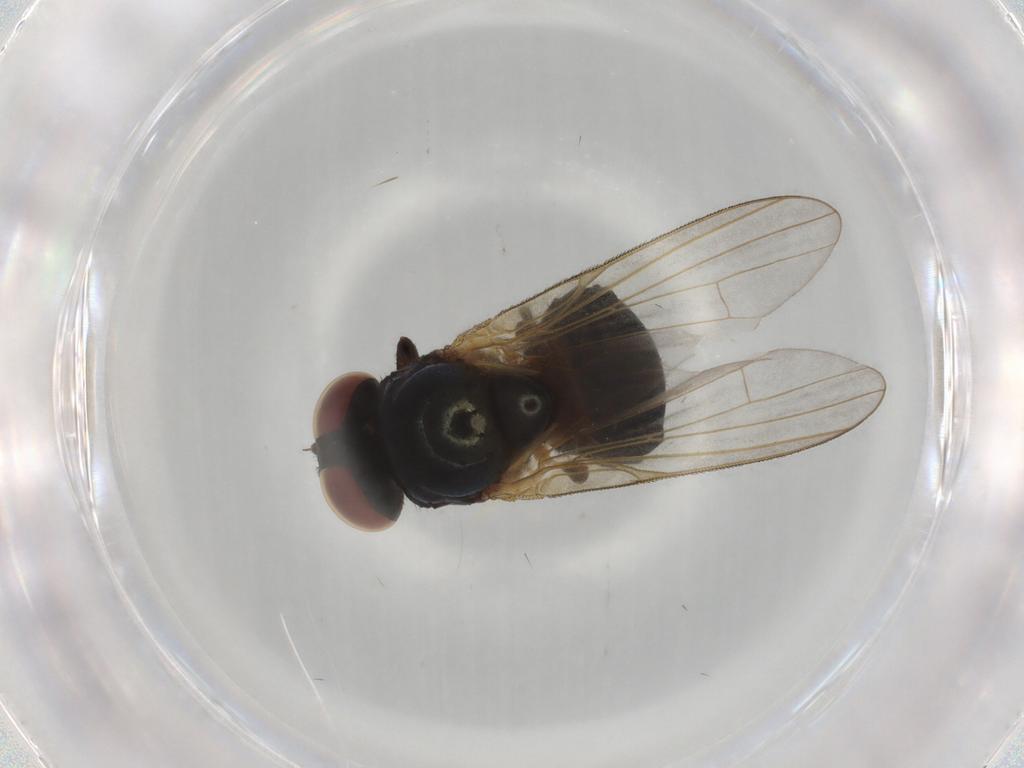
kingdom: Animalia
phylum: Arthropoda
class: Insecta
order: Diptera
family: Lonchaeidae
